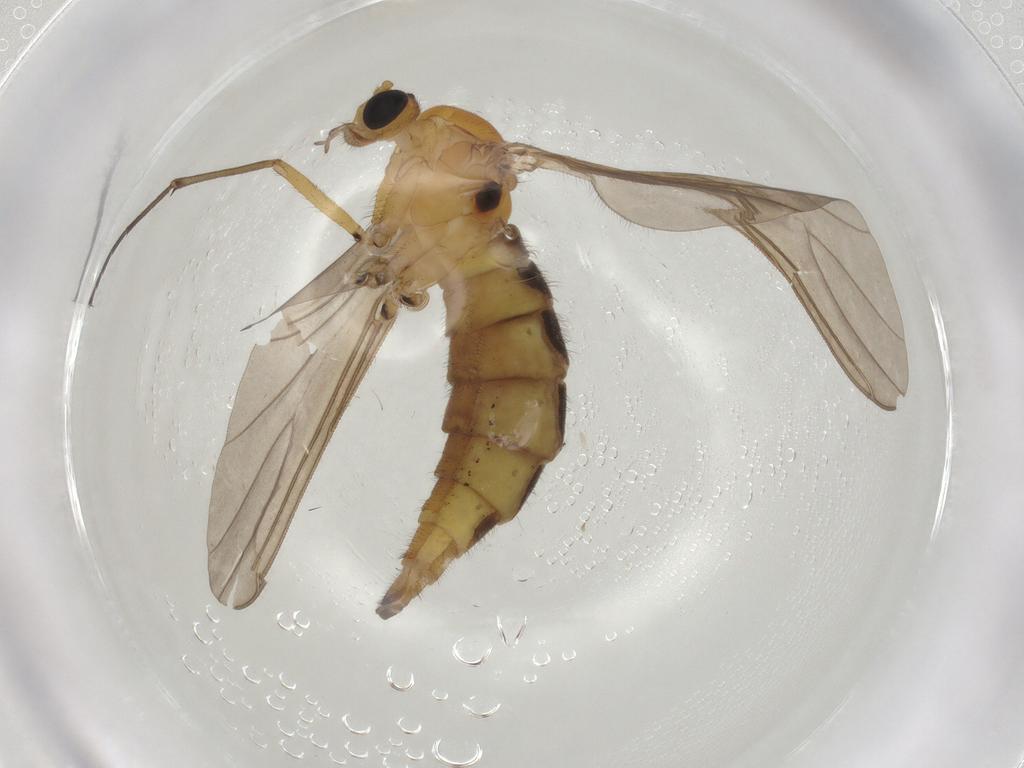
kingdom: Animalia
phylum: Arthropoda
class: Insecta
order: Diptera
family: Sciaridae
